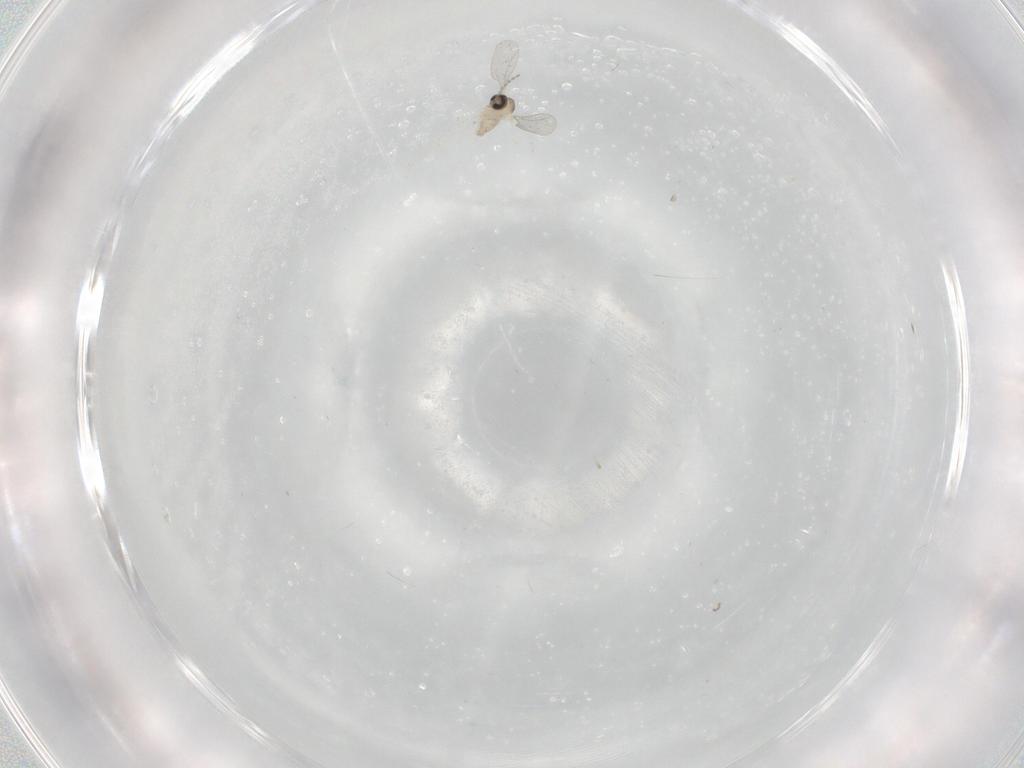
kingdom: Animalia
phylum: Arthropoda
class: Insecta
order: Diptera
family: Cecidomyiidae
